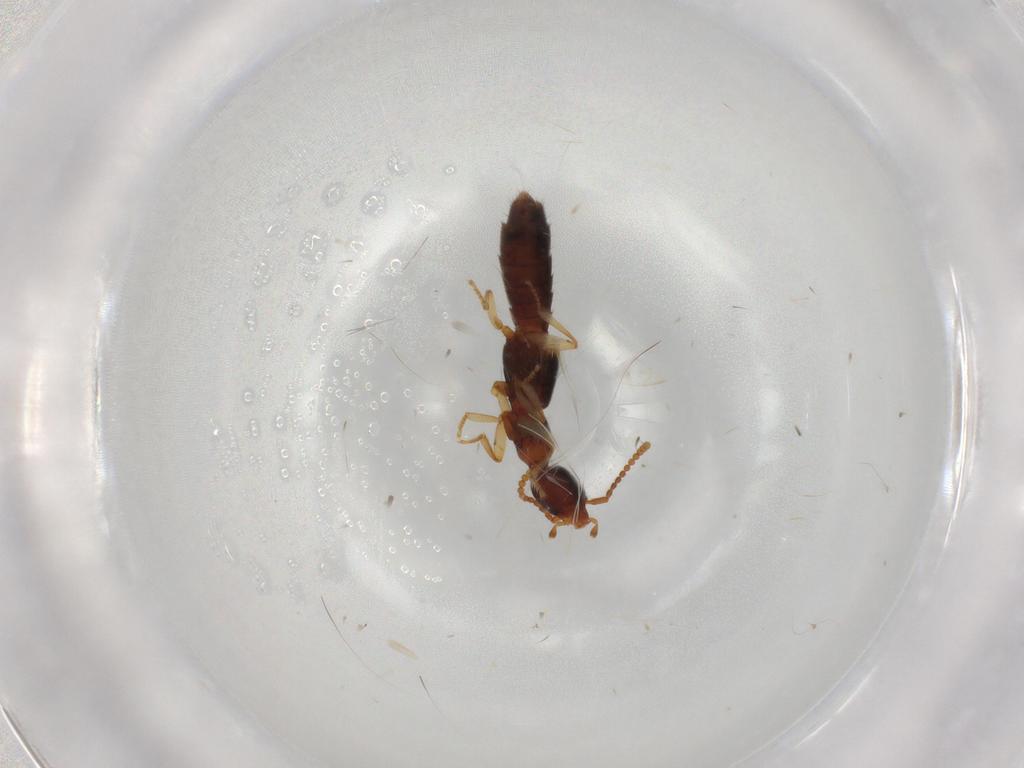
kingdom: Animalia
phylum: Arthropoda
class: Insecta
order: Coleoptera
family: Staphylinidae
